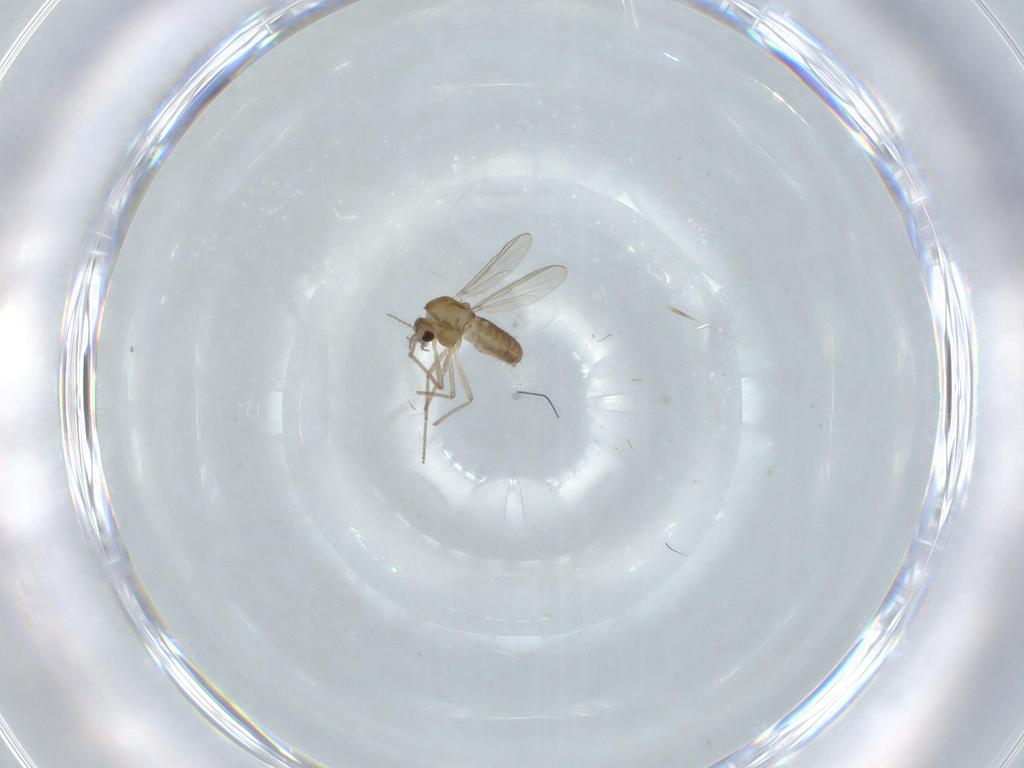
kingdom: Animalia
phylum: Arthropoda
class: Insecta
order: Diptera
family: Chironomidae
